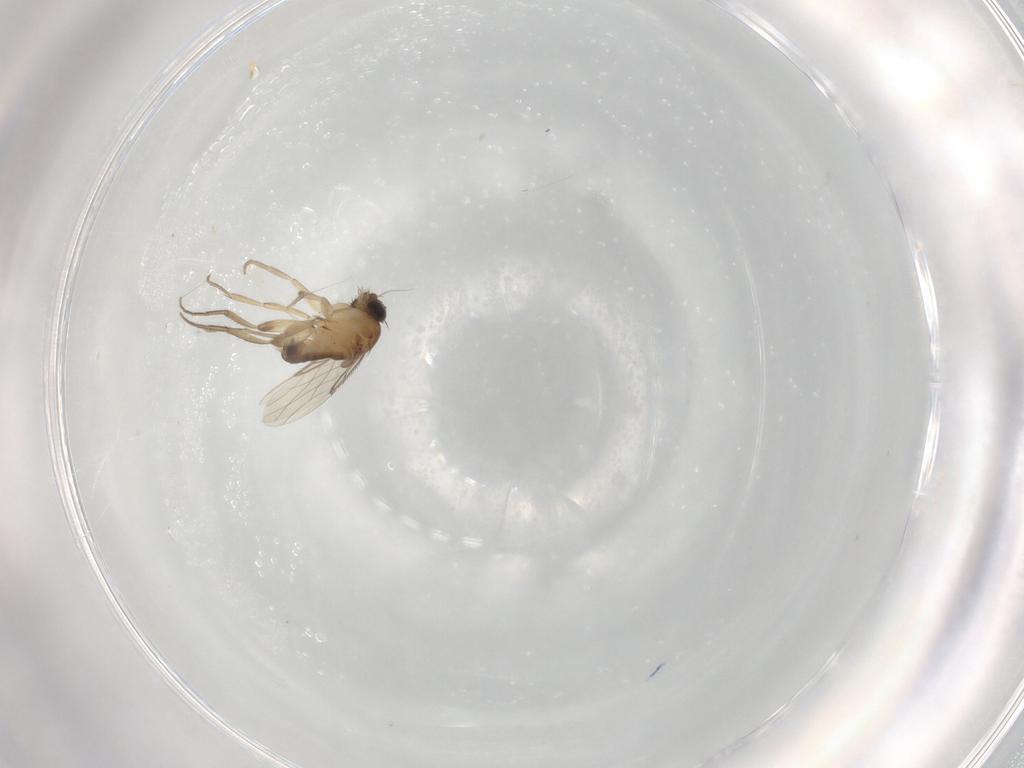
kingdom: Animalia
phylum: Arthropoda
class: Insecta
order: Diptera
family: Phoridae
